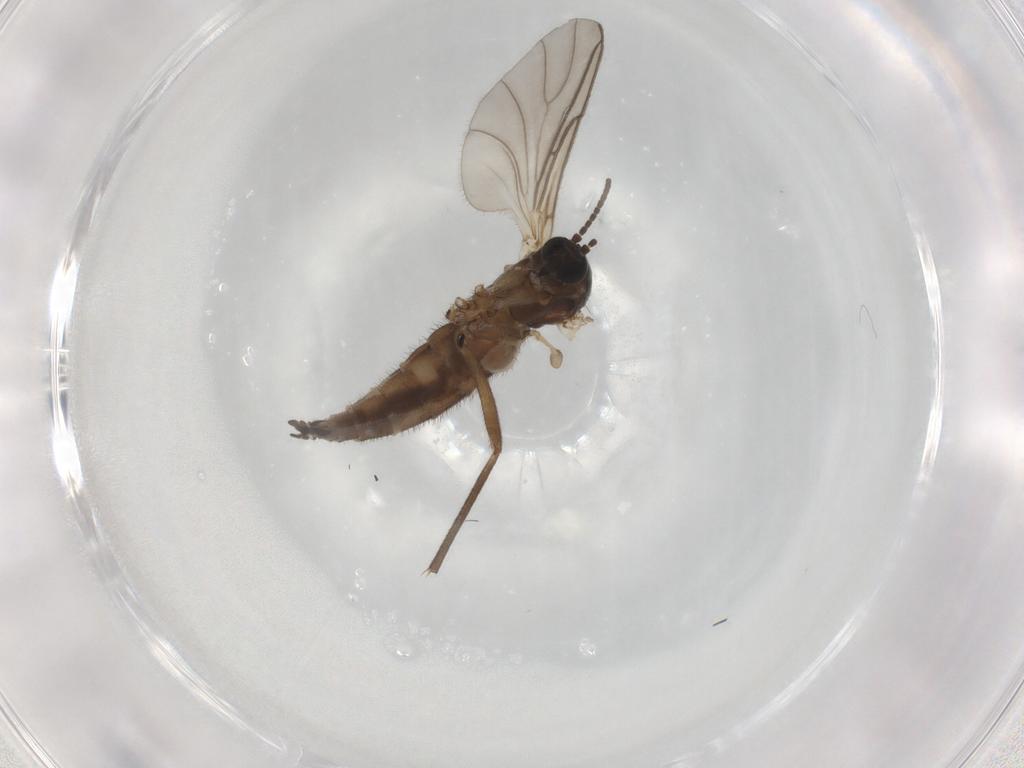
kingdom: Animalia
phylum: Arthropoda
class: Insecta
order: Diptera
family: Sciaridae
